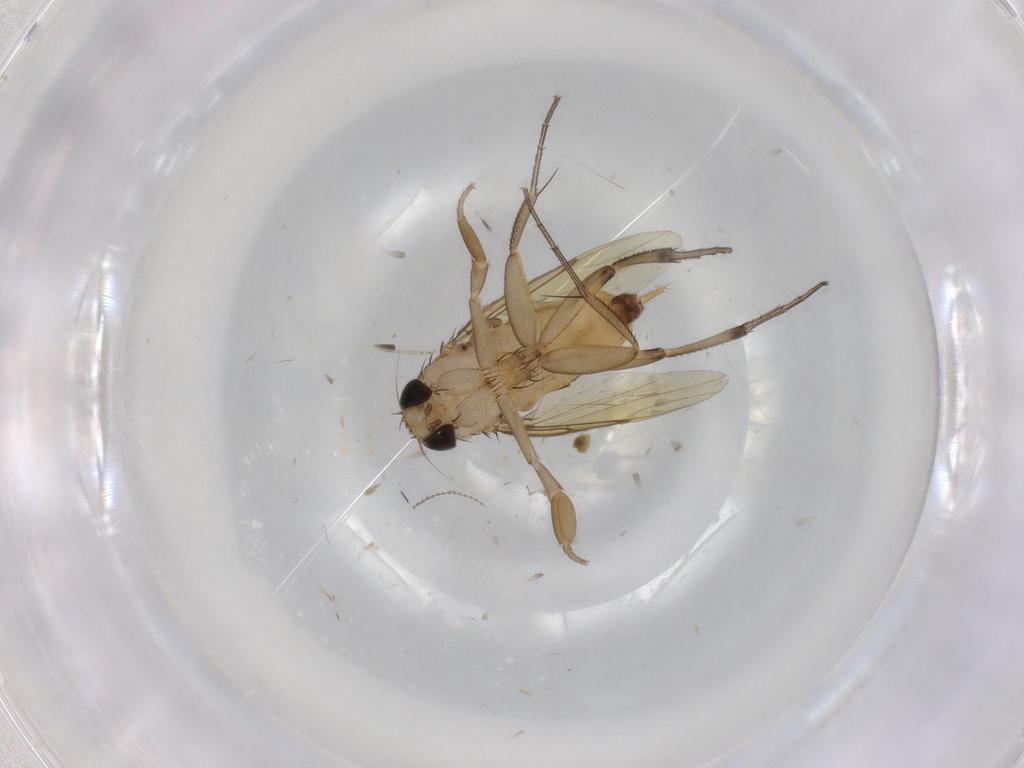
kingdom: Animalia
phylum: Arthropoda
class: Insecta
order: Diptera
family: Phoridae
